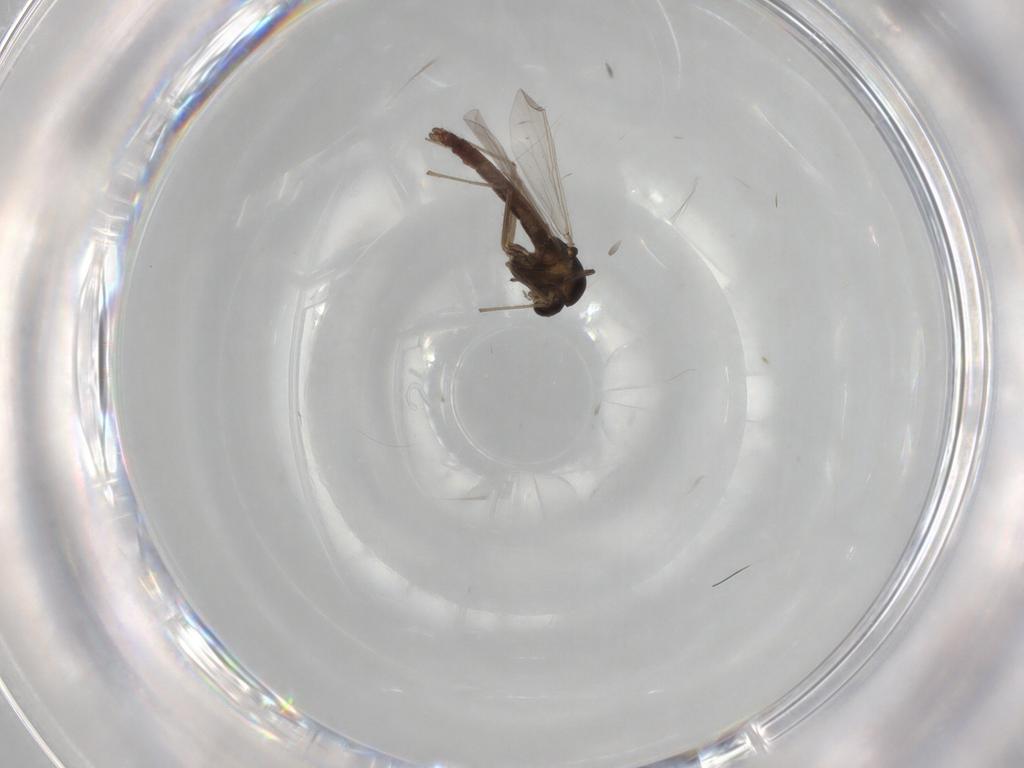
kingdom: Animalia
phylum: Arthropoda
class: Insecta
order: Diptera
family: Chironomidae
